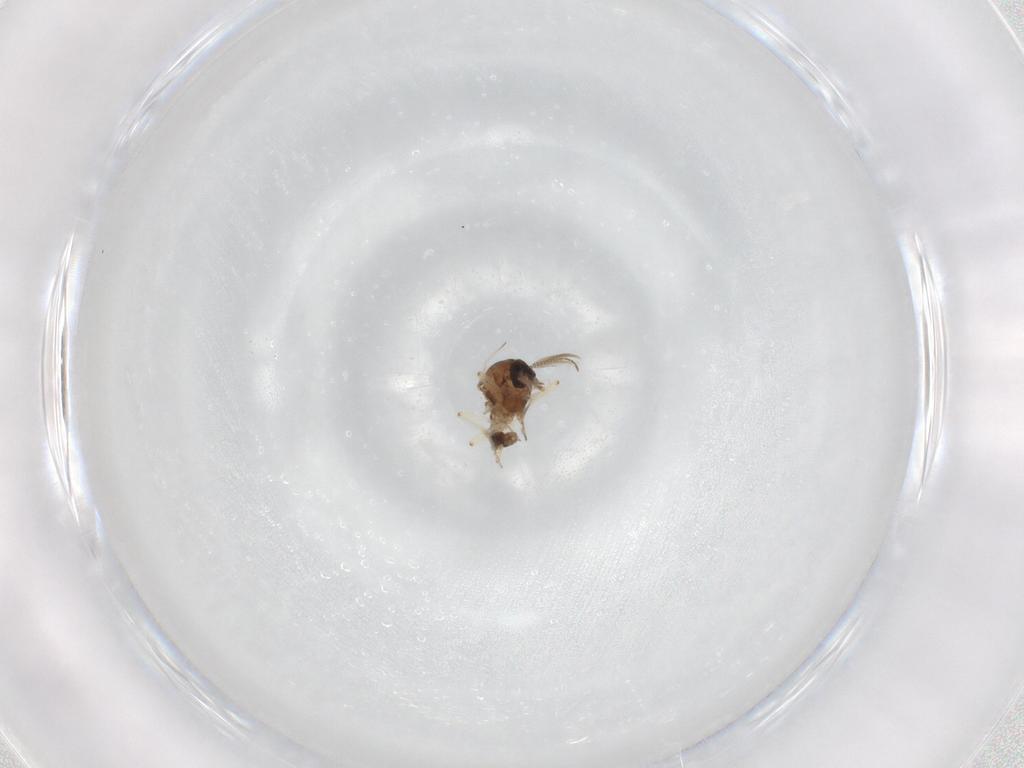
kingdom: Animalia
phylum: Arthropoda
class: Insecta
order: Diptera
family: Ceratopogonidae
